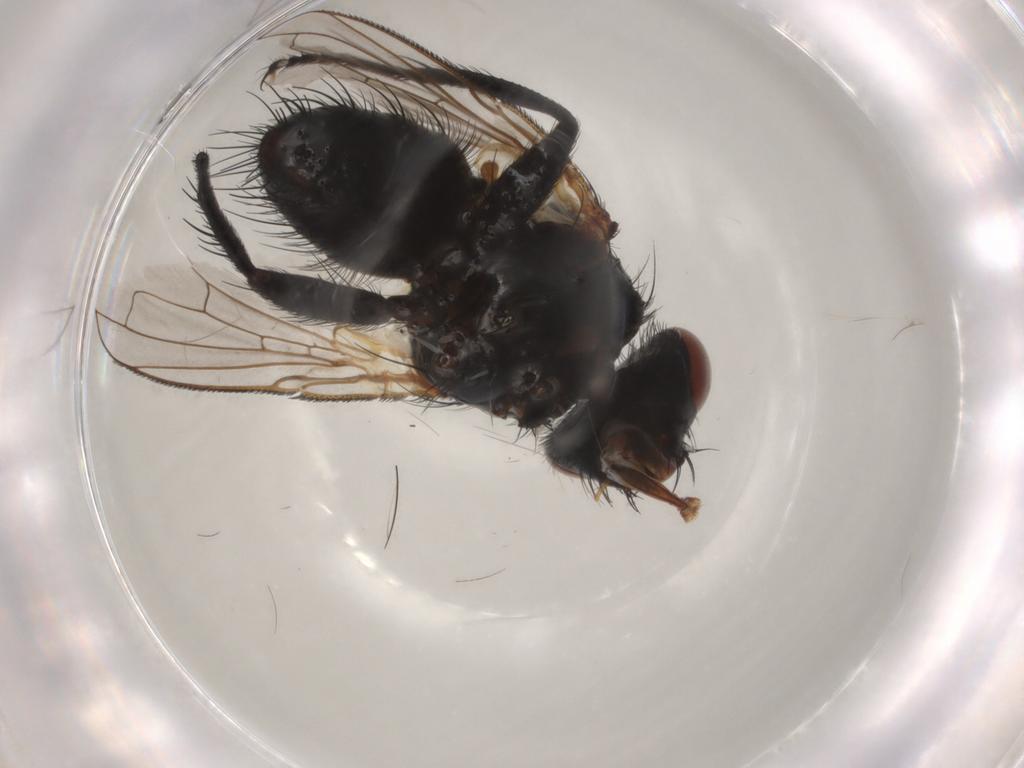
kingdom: Animalia
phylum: Arthropoda
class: Insecta
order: Diptera
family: Tachinidae
